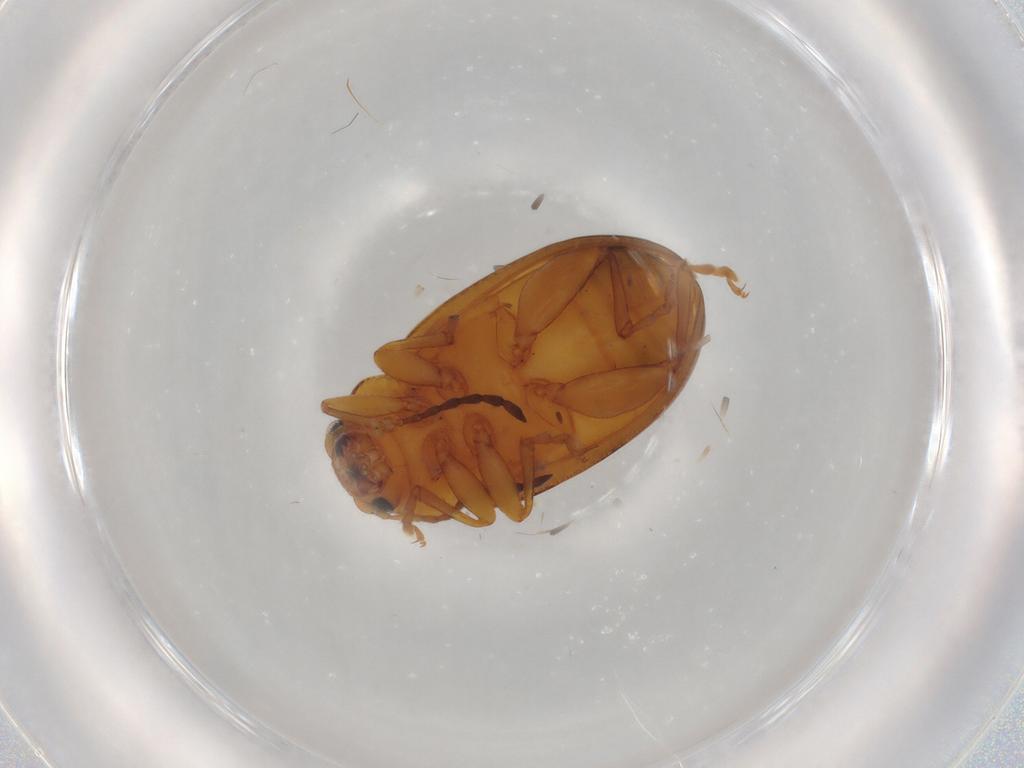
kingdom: Animalia
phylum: Arthropoda
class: Insecta
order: Coleoptera
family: Chrysomelidae
